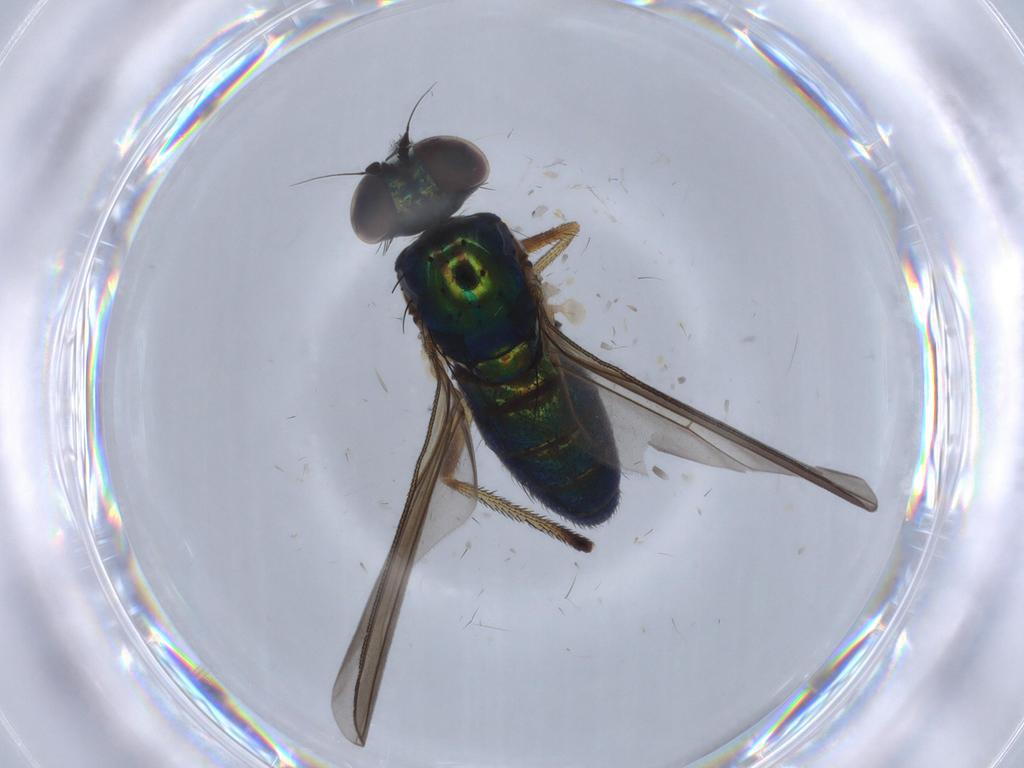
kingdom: Animalia
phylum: Arthropoda
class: Insecta
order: Diptera
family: Dolichopodidae
